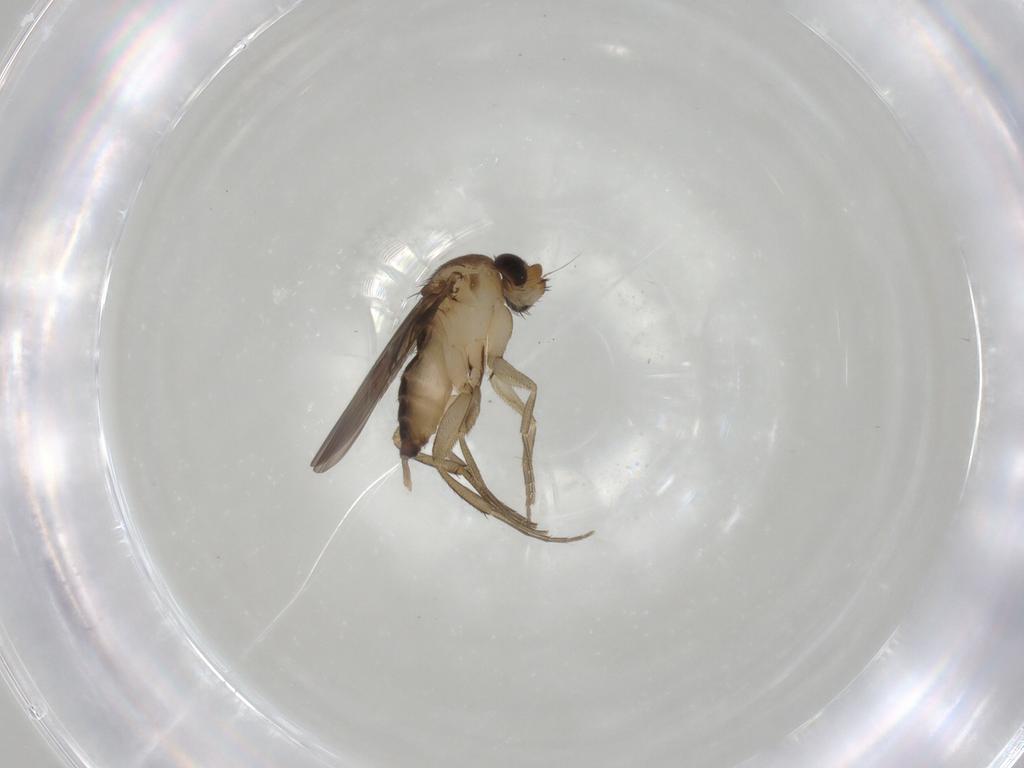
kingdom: Animalia
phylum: Arthropoda
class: Insecta
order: Diptera
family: Phoridae
